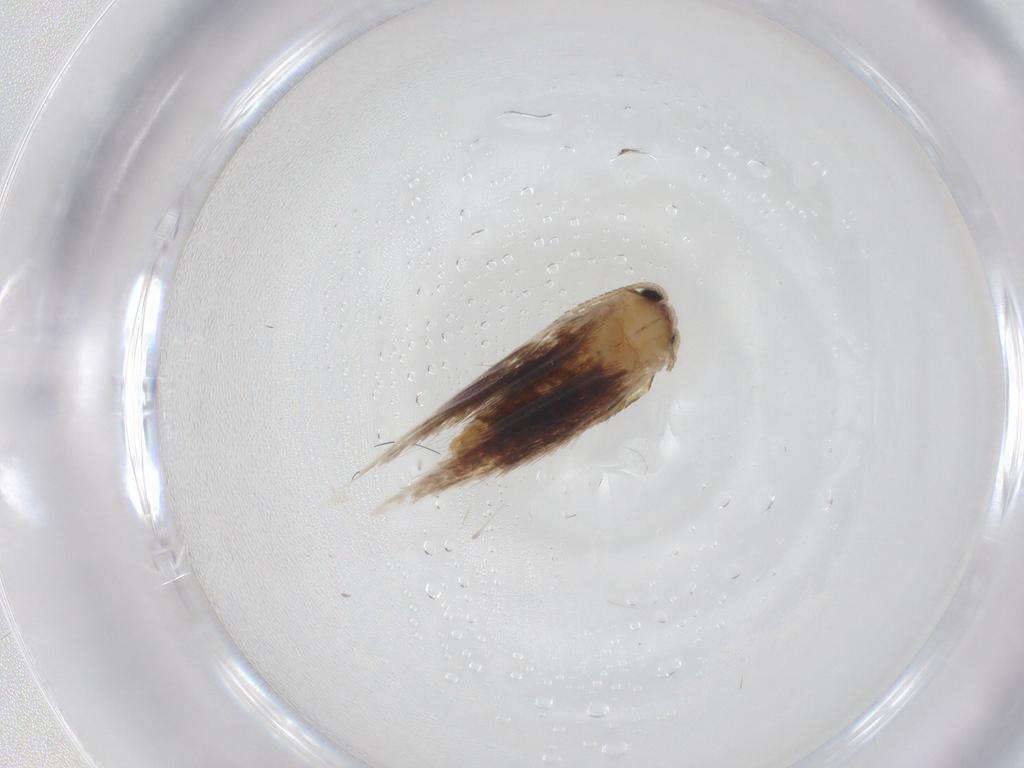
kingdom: Animalia
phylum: Arthropoda
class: Insecta
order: Lepidoptera
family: Nepticulidae
